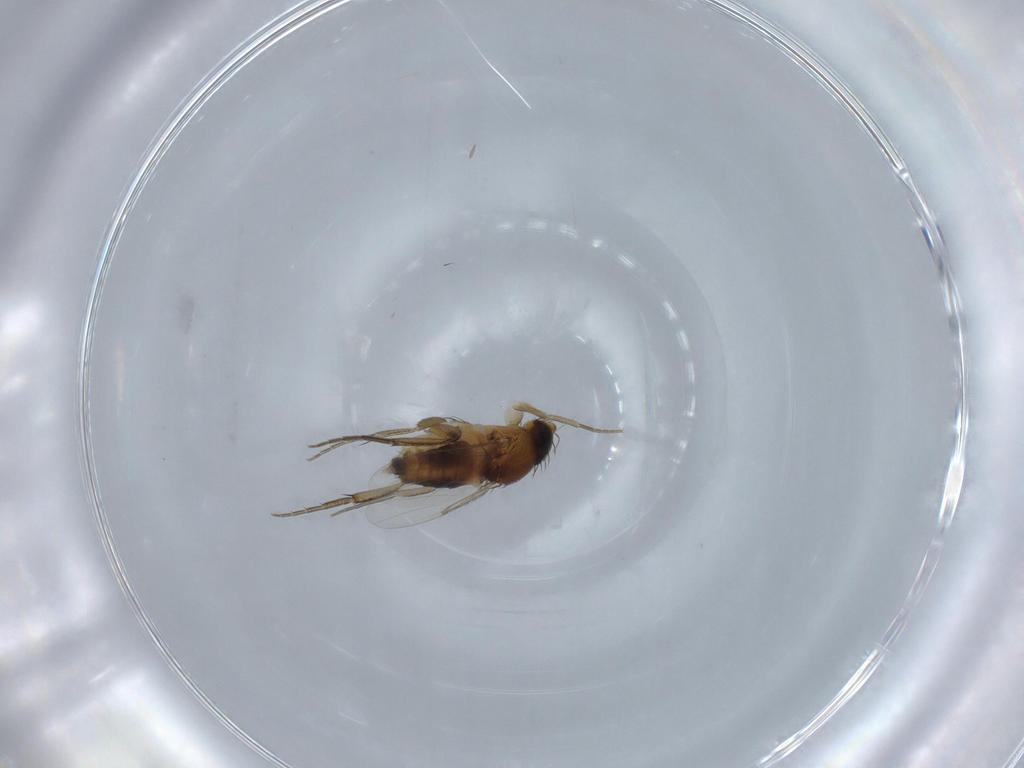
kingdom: Animalia
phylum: Arthropoda
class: Insecta
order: Diptera
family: Phoridae
